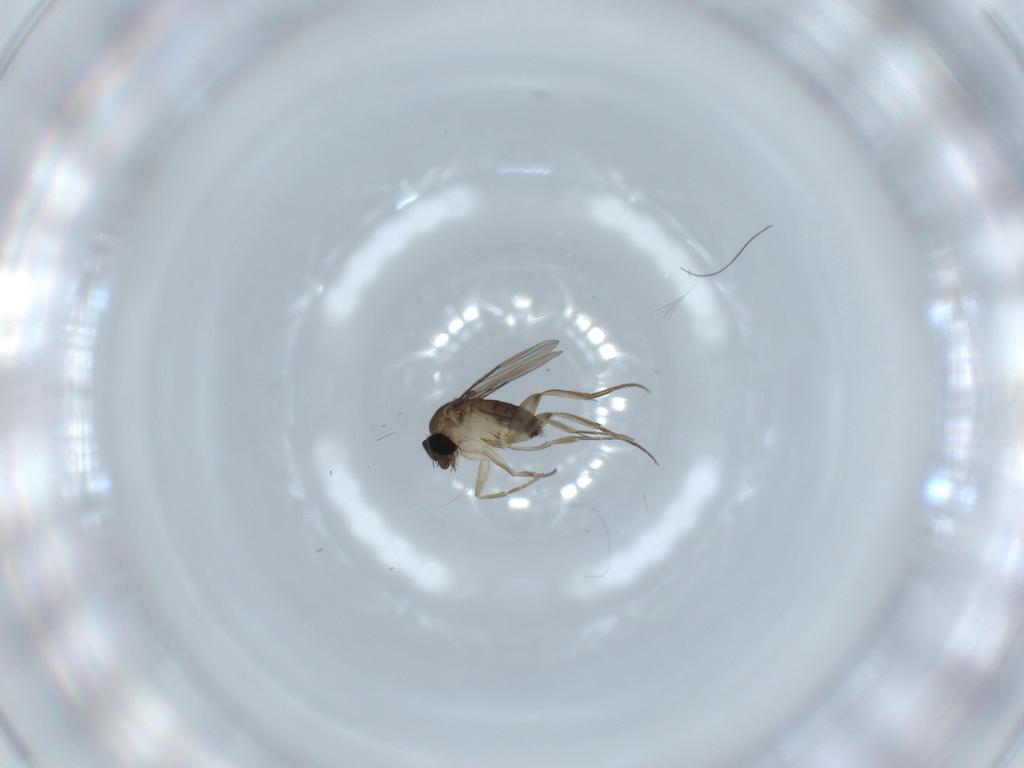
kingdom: Animalia
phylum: Arthropoda
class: Insecta
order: Diptera
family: Phoridae
